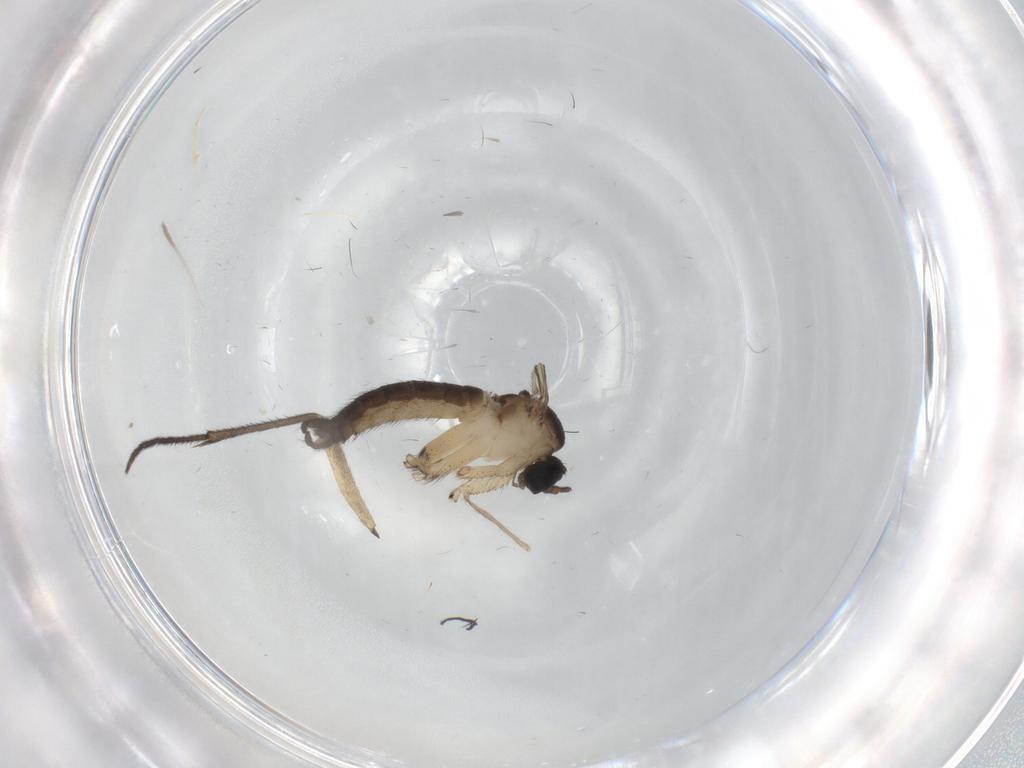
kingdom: Animalia
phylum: Arthropoda
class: Insecta
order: Diptera
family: Sciaridae
